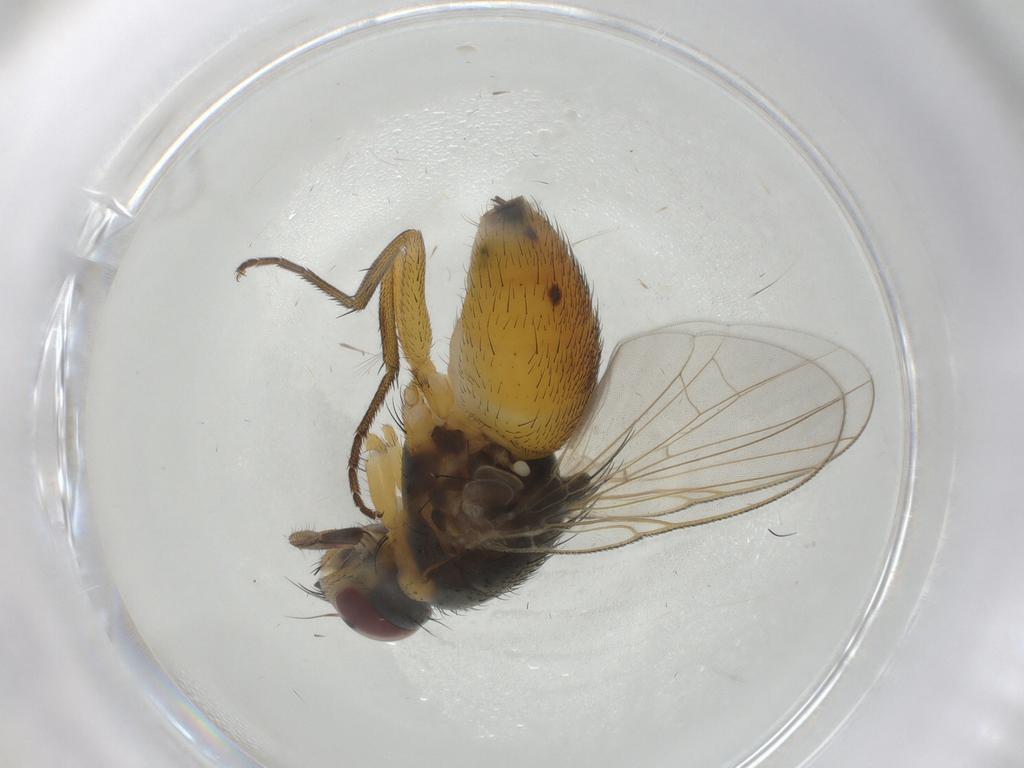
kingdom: Animalia
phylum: Arthropoda
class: Insecta
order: Diptera
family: Muscidae
